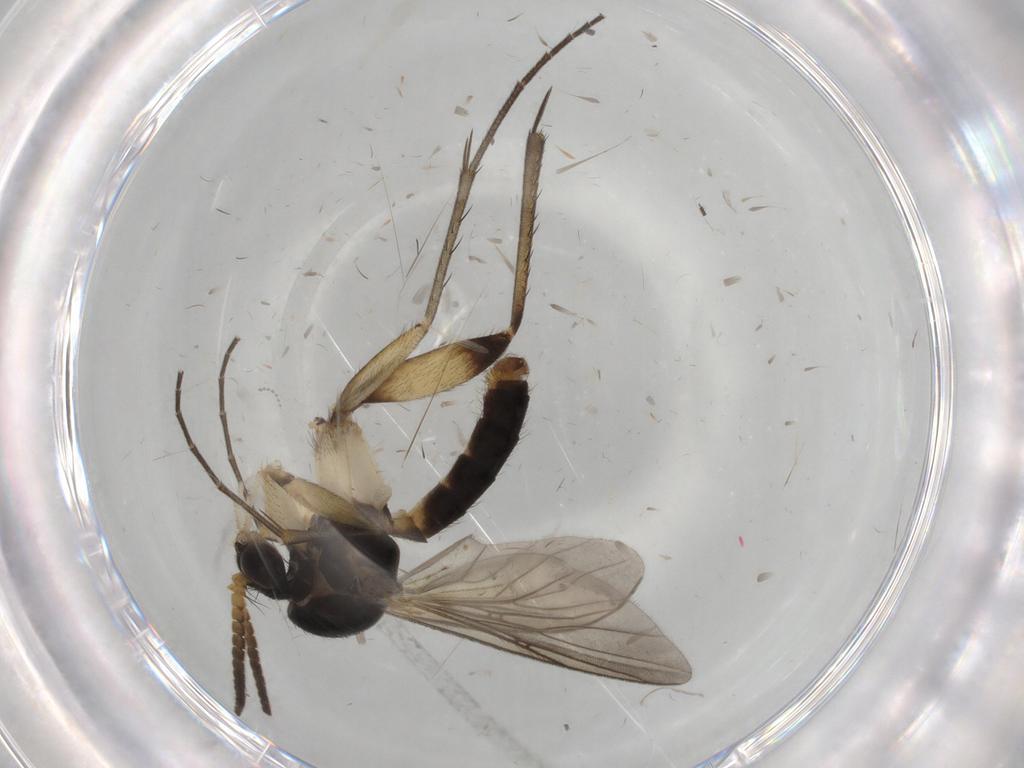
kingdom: Animalia
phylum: Arthropoda
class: Insecta
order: Diptera
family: Mycetophilidae
